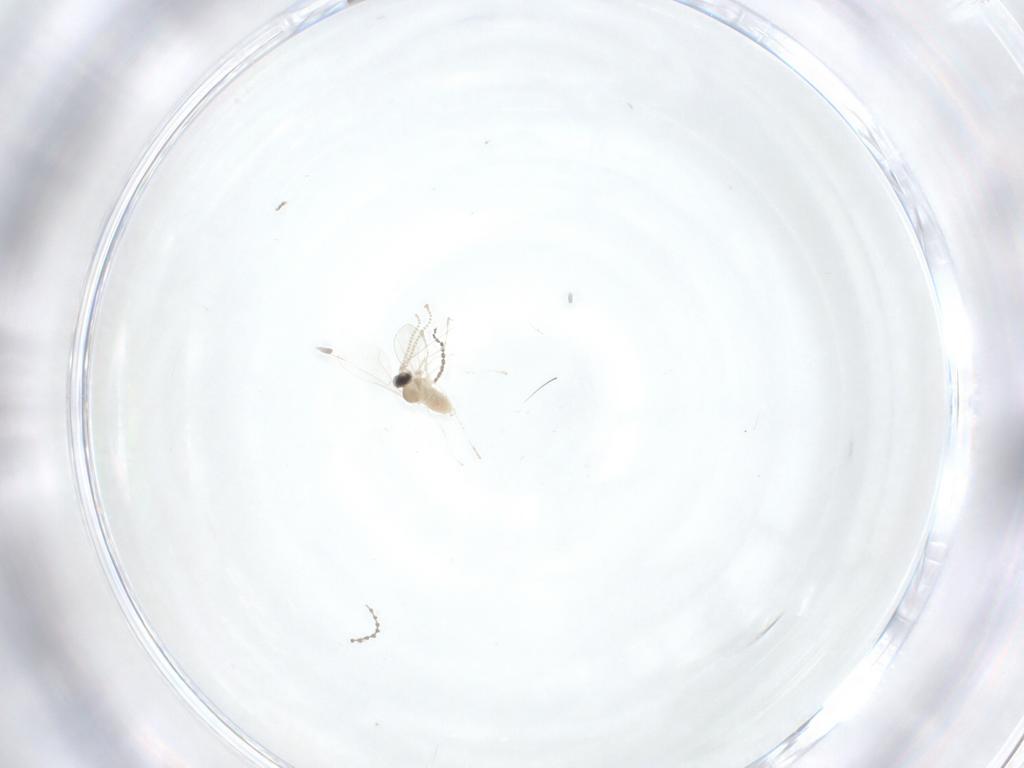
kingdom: Animalia
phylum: Arthropoda
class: Insecta
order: Diptera
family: Cecidomyiidae
